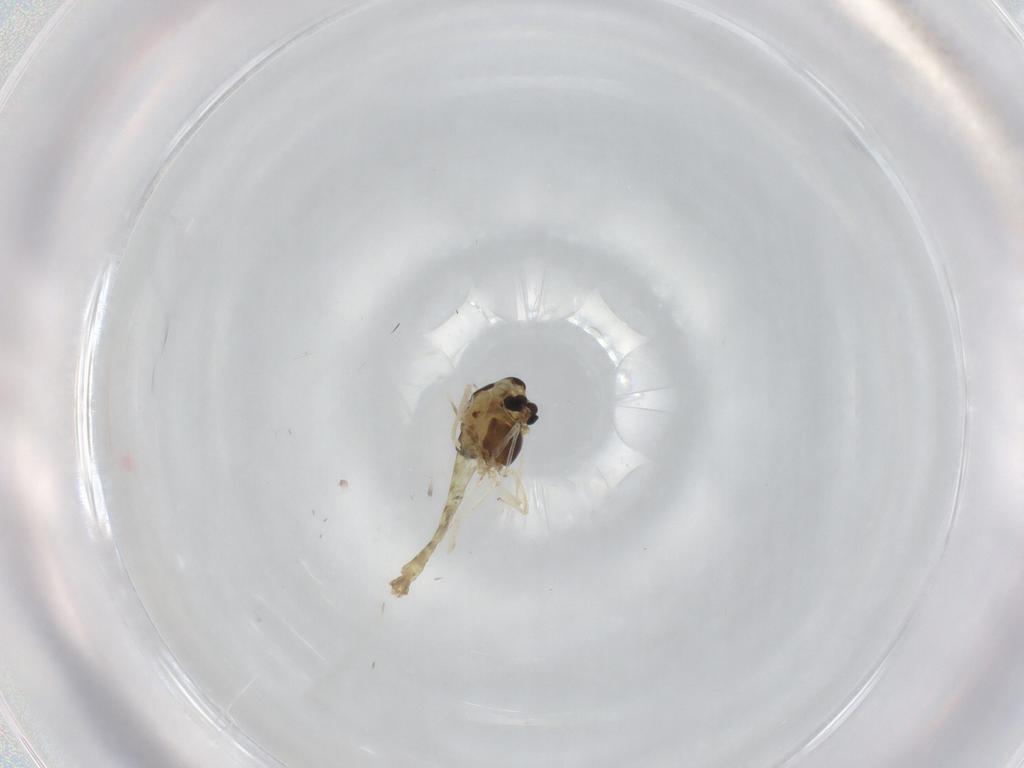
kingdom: Animalia
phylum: Arthropoda
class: Insecta
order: Diptera
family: Chironomidae
